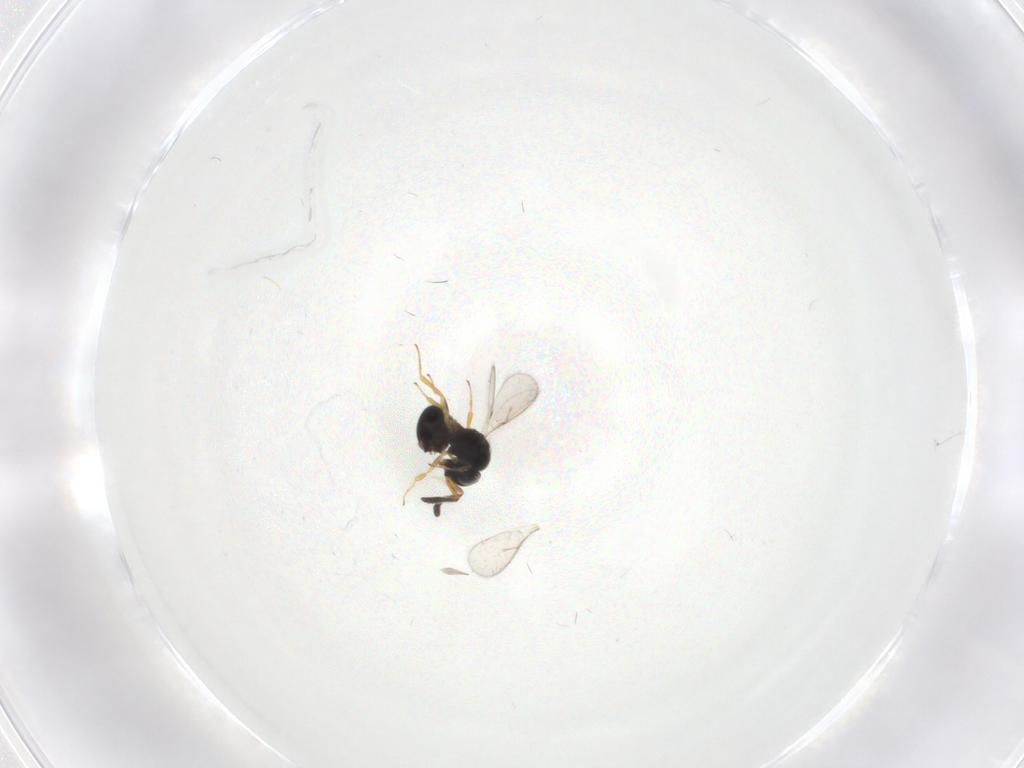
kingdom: Animalia
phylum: Arthropoda
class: Insecta
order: Hymenoptera
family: Scelionidae
